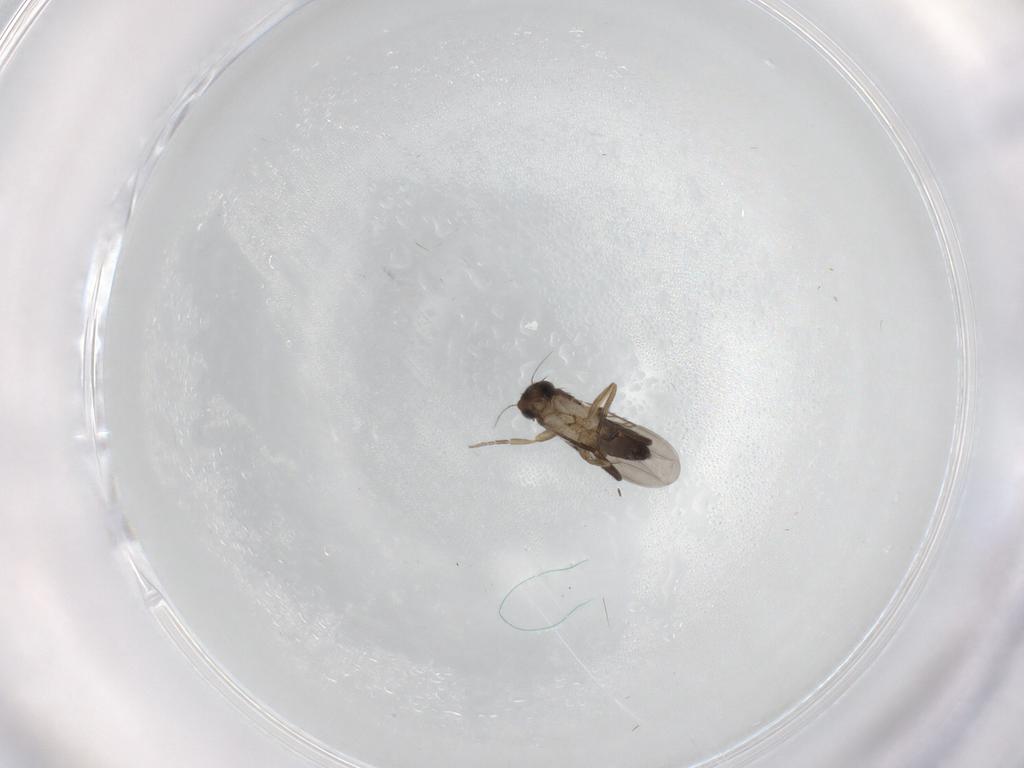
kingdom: Animalia
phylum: Arthropoda
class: Insecta
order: Diptera
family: Phoridae
